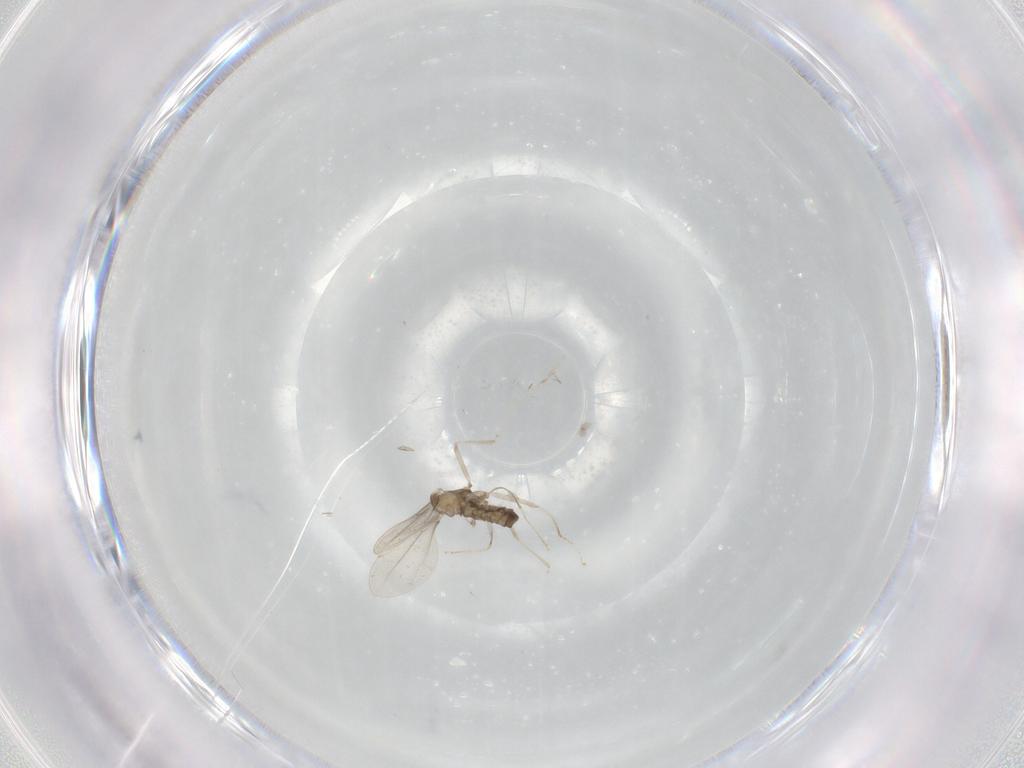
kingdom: Animalia
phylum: Arthropoda
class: Insecta
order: Diptera
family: Cecidomyiidae
